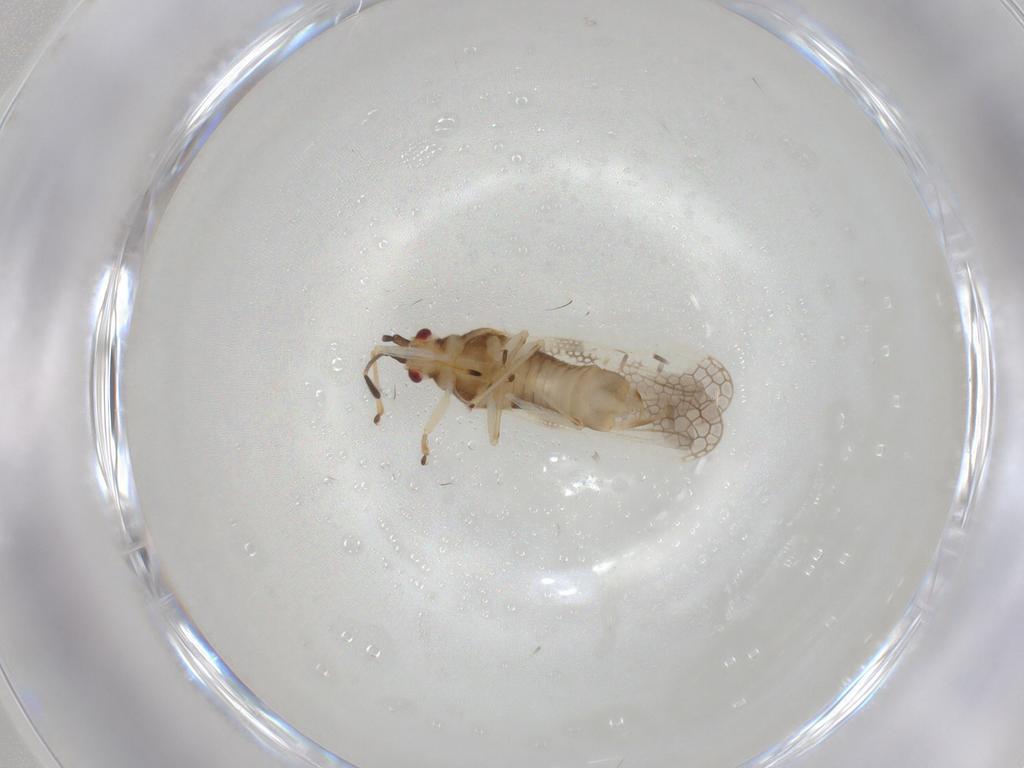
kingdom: Animalia
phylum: Arthropoda
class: Insecta
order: Hemiptera
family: Tingidae
